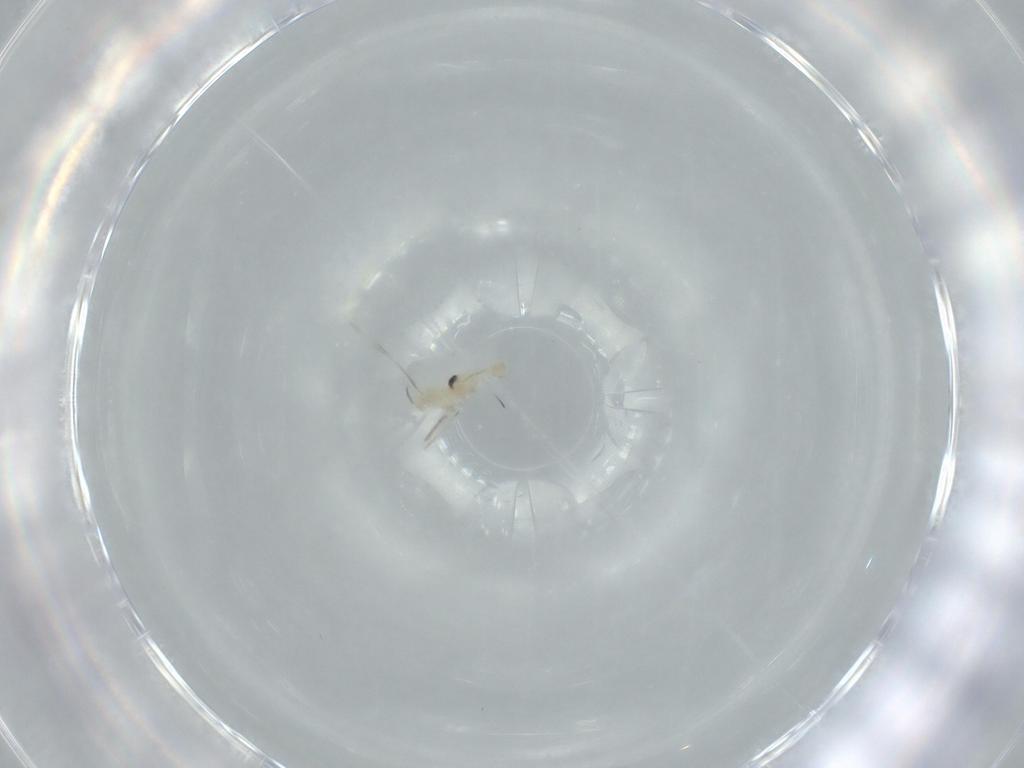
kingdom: Animalia
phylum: Arthropoda
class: Insecta
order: Diptera
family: Cecidomyiidae
